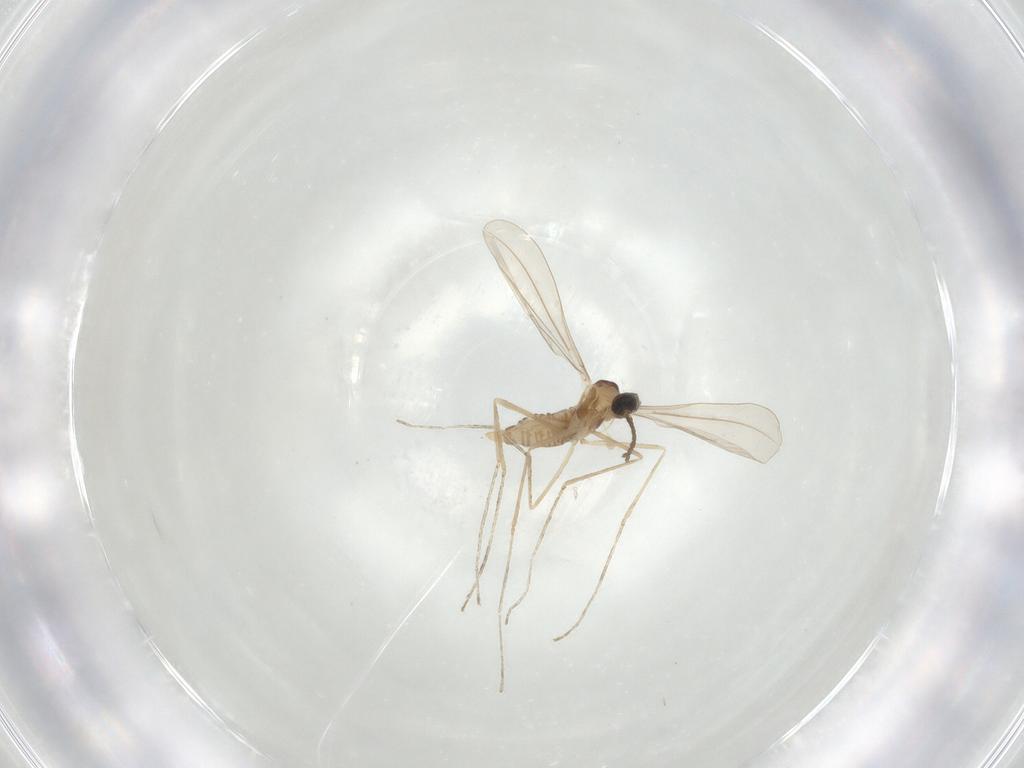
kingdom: Animalia
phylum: Arthropoda
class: Insecta
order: Diptera
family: Cecidomyiidae
